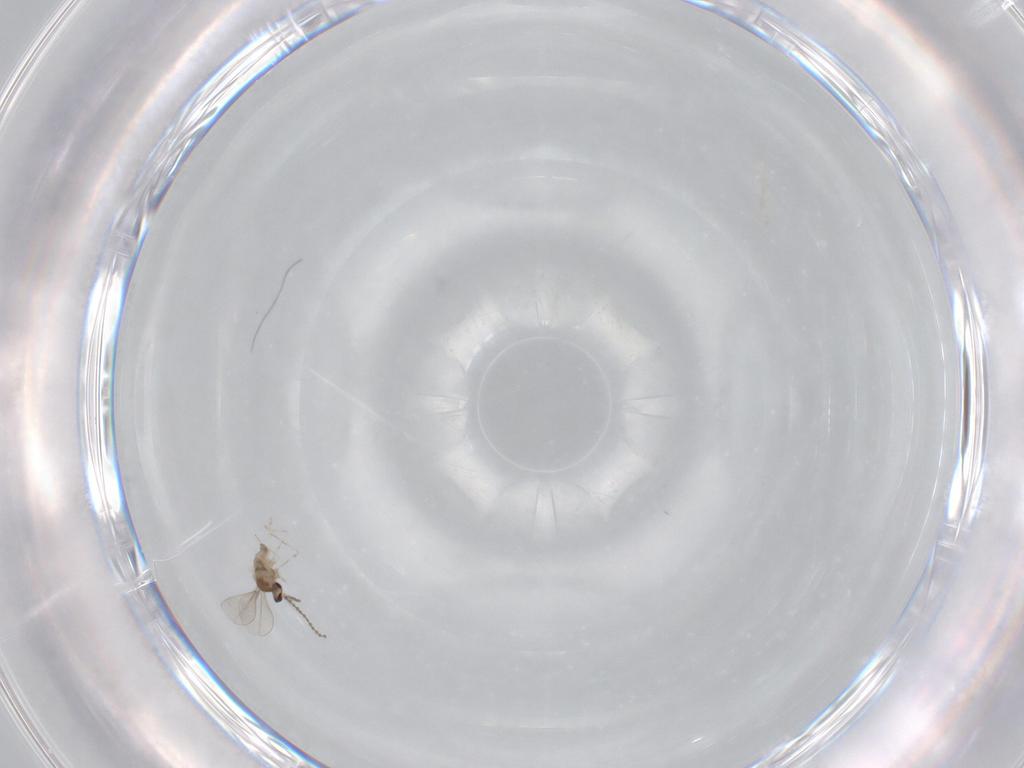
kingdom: Animalia
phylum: Arthropoda
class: Insecta
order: Diptera
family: Cecidomyiidae
